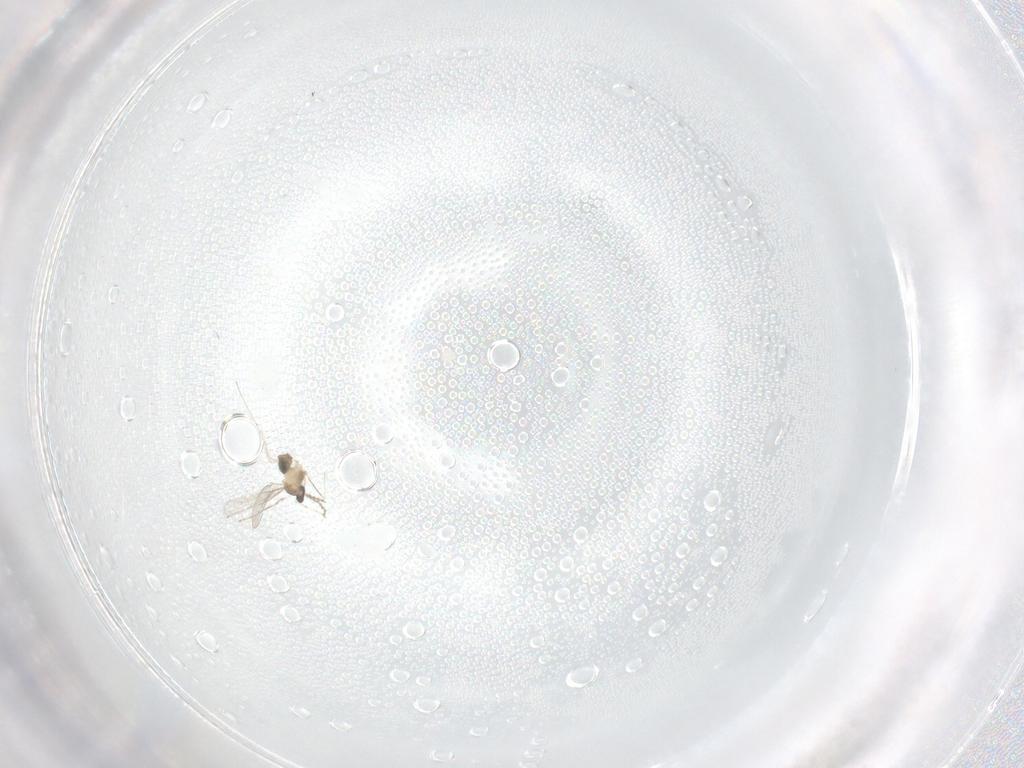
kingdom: Animalia
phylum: Arthropoda
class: Insecta
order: Diptera
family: Cecidomyiidae
